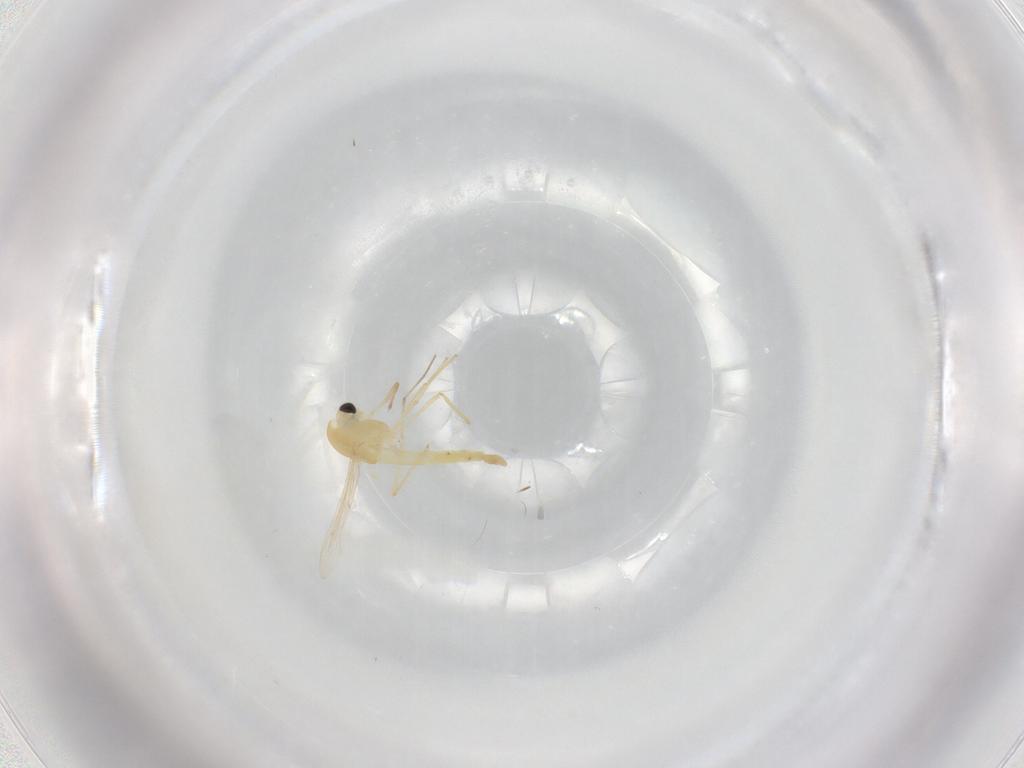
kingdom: Animalia
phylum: Arthropoda
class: Insecta
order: Diptera
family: Chironomidae
